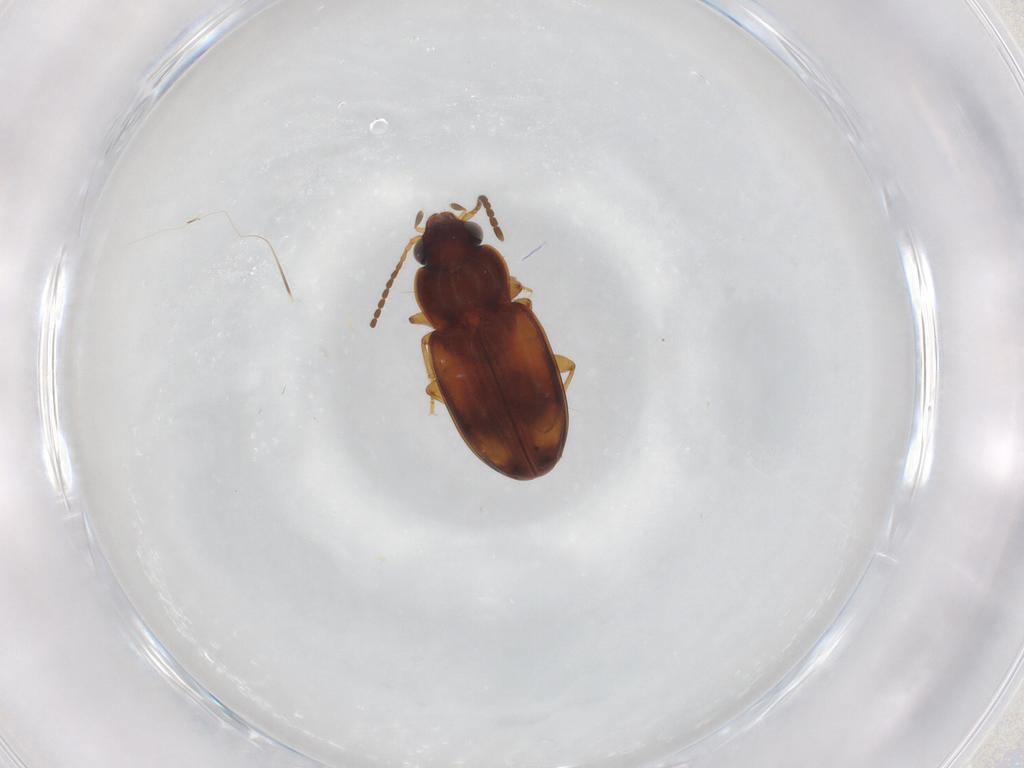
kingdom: Animalia
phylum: Arthropoda
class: Insecta
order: Coleoptera
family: Carabidae
